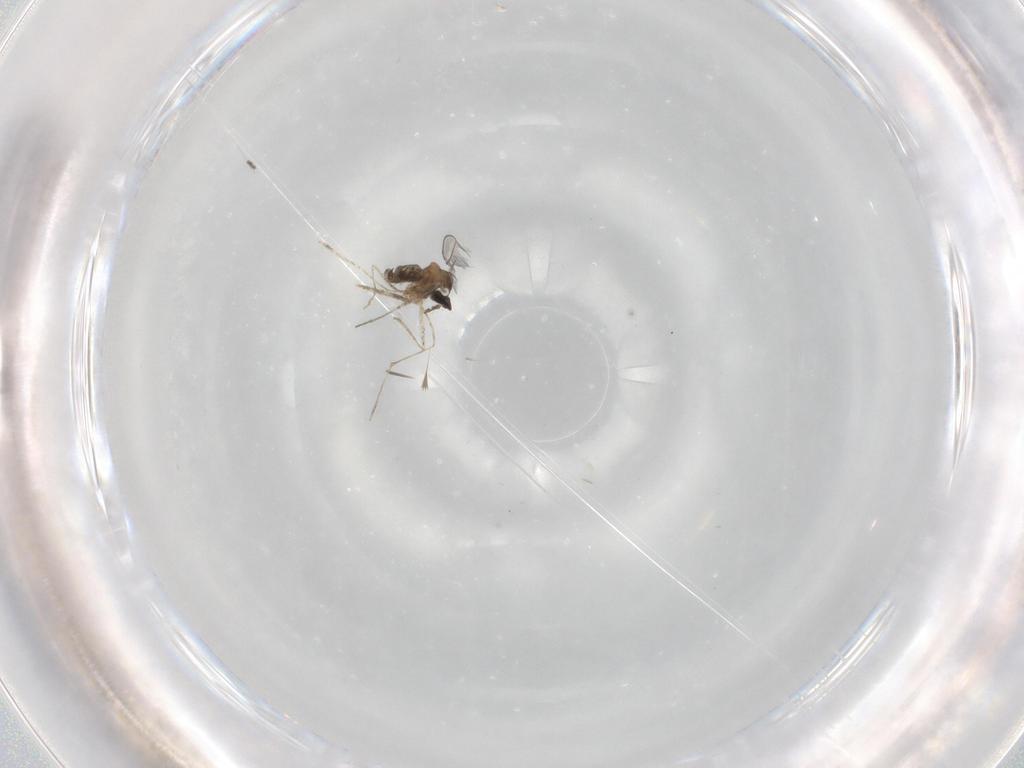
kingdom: Animalia
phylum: Arthropoda
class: Insecta
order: Diptera
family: Cecidomyiidae
